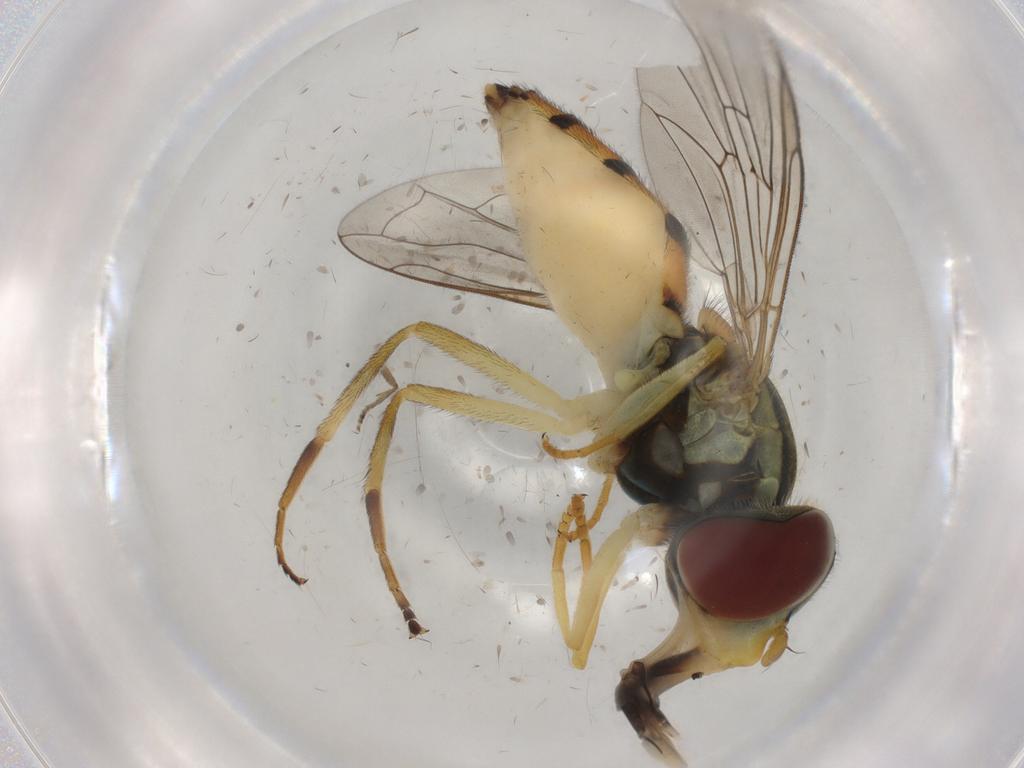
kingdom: Animalia
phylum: Arthropoda
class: Insecta
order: Diptera
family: Syrphidae
